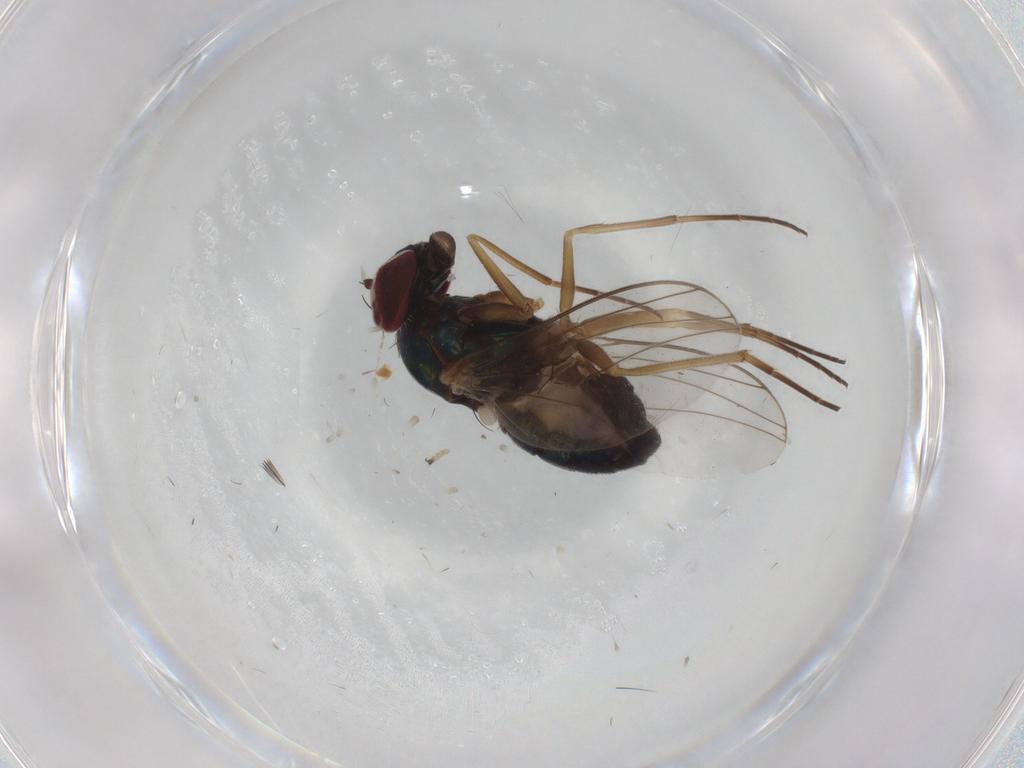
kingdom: Animalia
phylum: Arthropoda
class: Insecta
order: Diptera
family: Dolichopodidae
